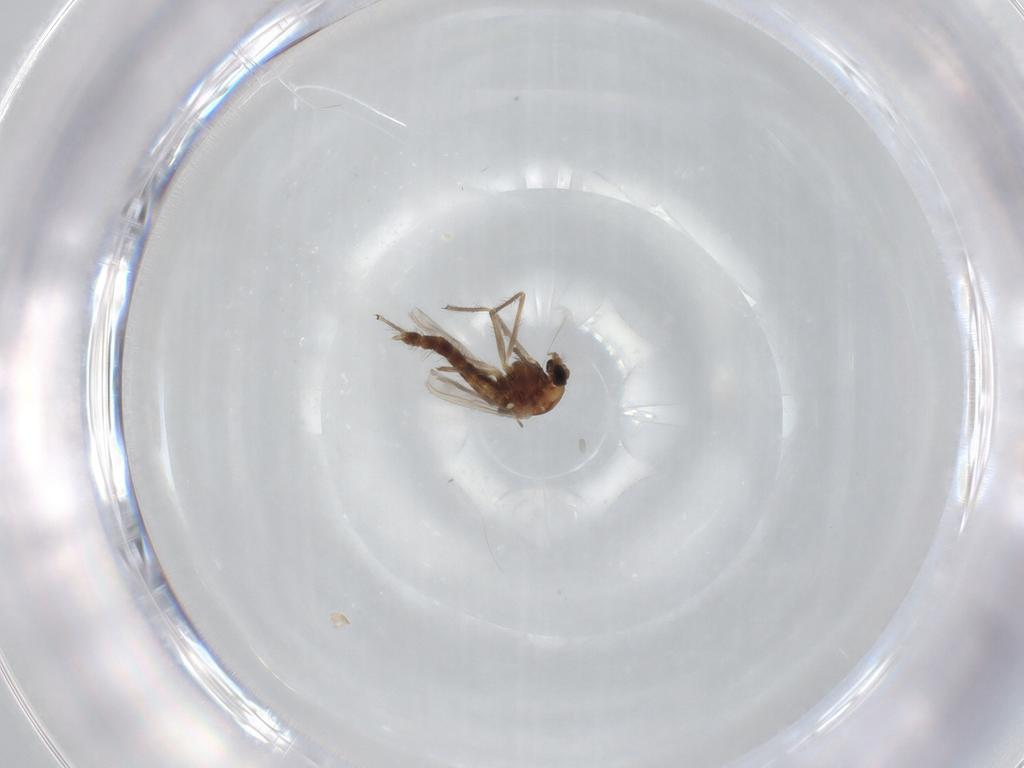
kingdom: Animalia
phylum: Arthropoda
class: Insecta
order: Diptera
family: Chironomidae
